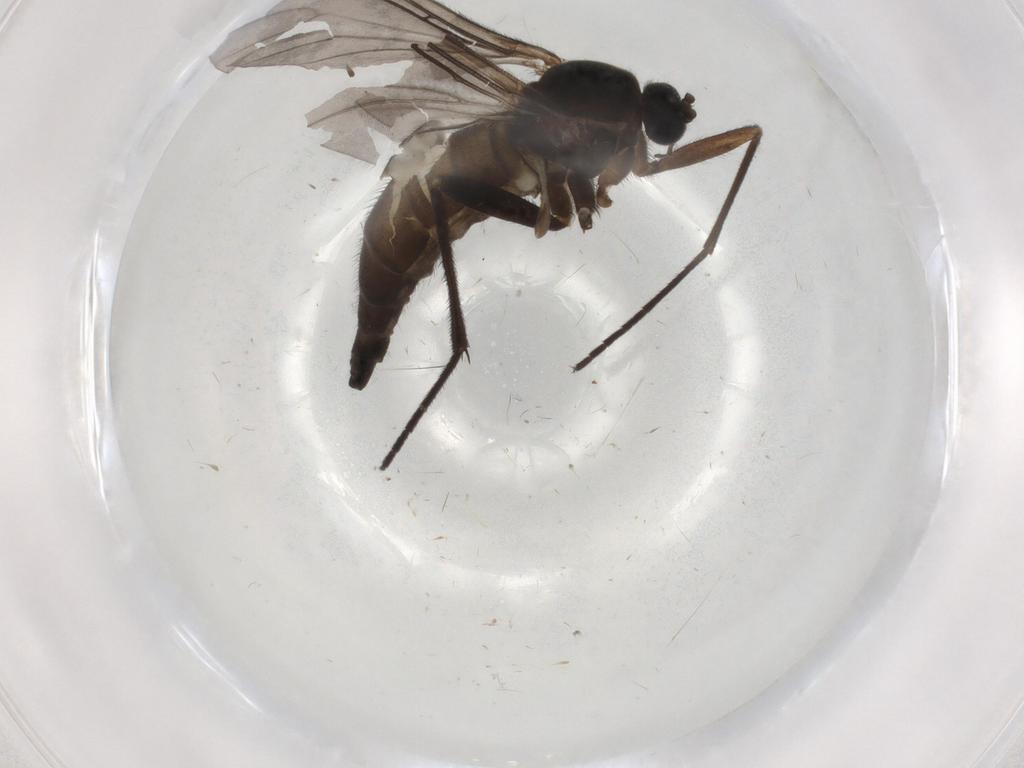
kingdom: Animalia
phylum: Arthropoda
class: Insecta
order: Diptera
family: Sciaridae
